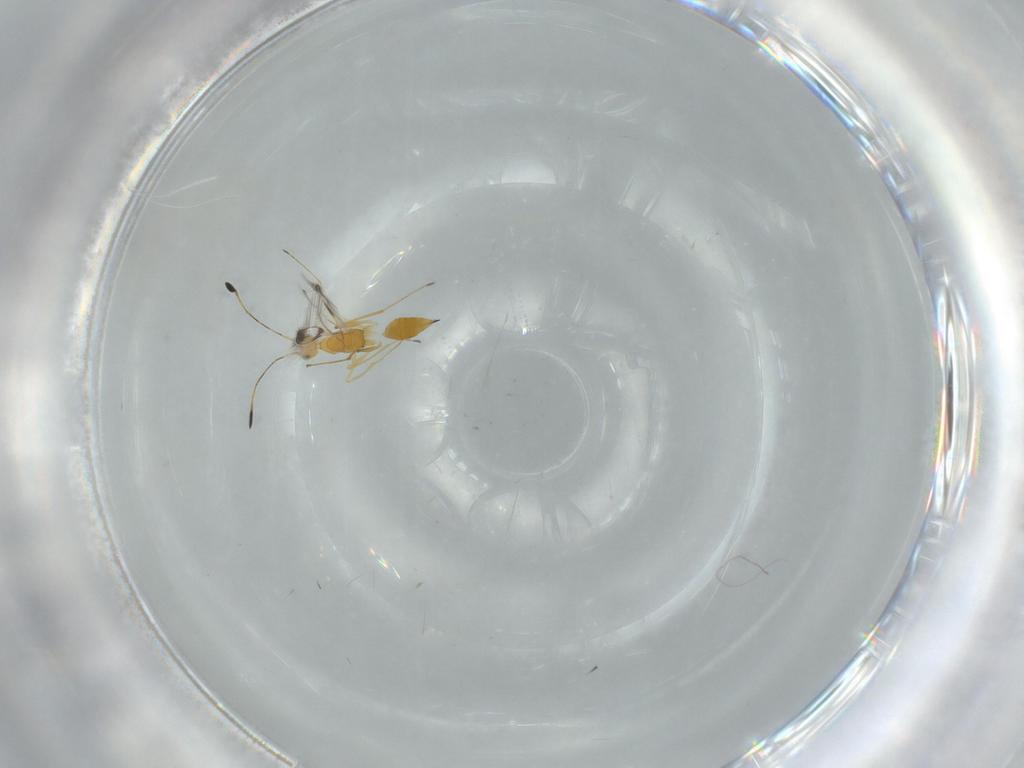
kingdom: Animalia
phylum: Arthropoda
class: Insecta
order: Hymenoptera
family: Mymaridae
